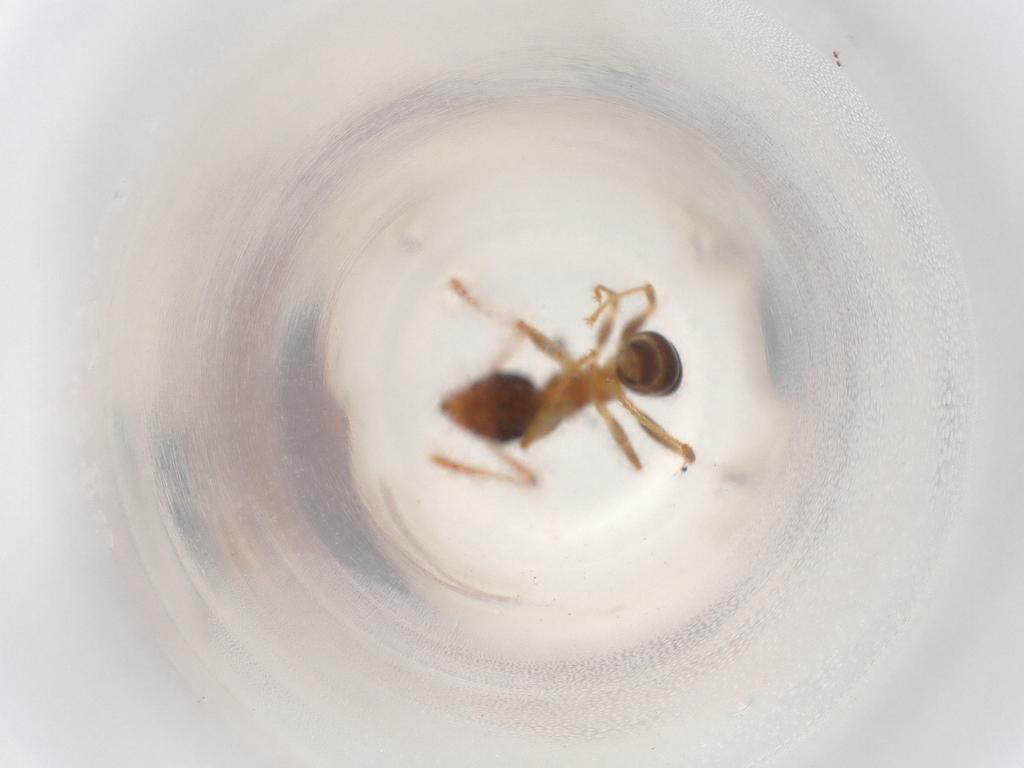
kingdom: Animalia
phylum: Arthropoda
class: Insecta
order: Hymenoptera
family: Formicidae
